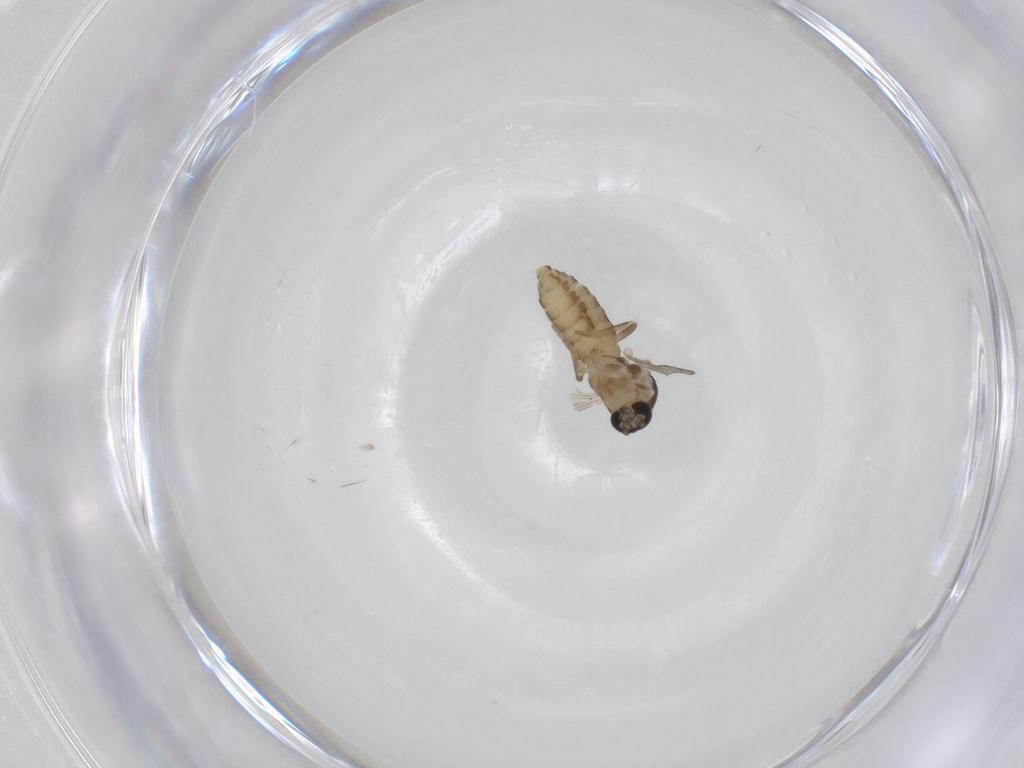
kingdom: Animalia
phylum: Arthropoda
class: Insecta
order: Diptera
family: Ceratopogonidae
